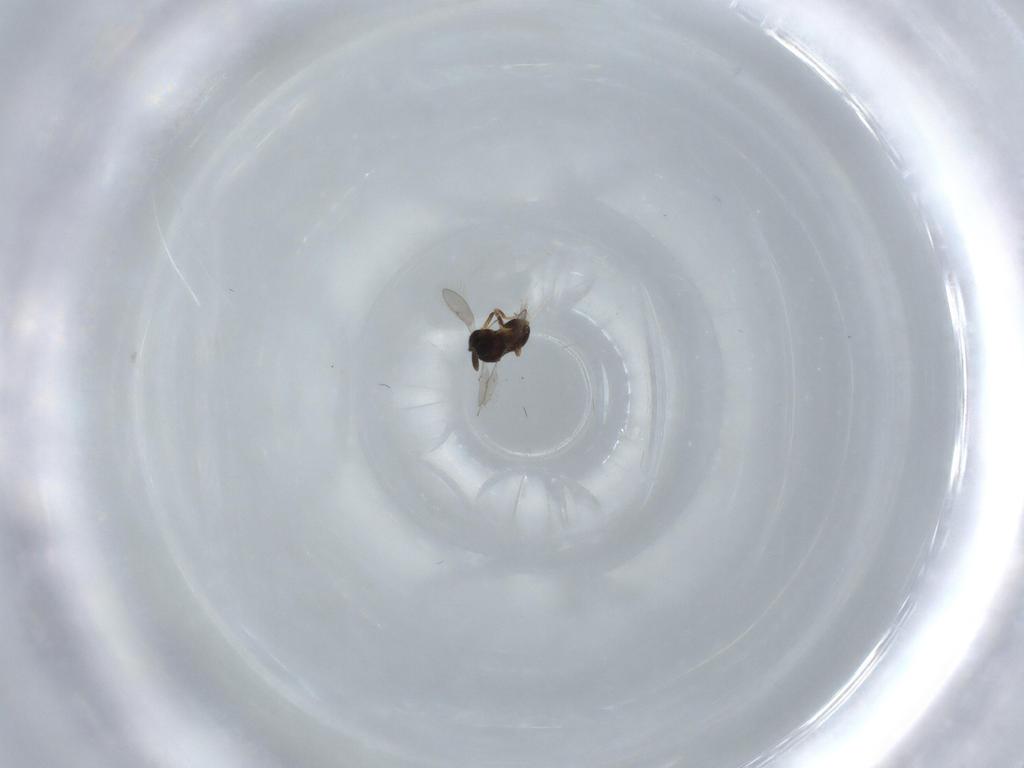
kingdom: Animalia
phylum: Arthropoda
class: Insecta
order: Hymenoptera
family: Scelionidae
